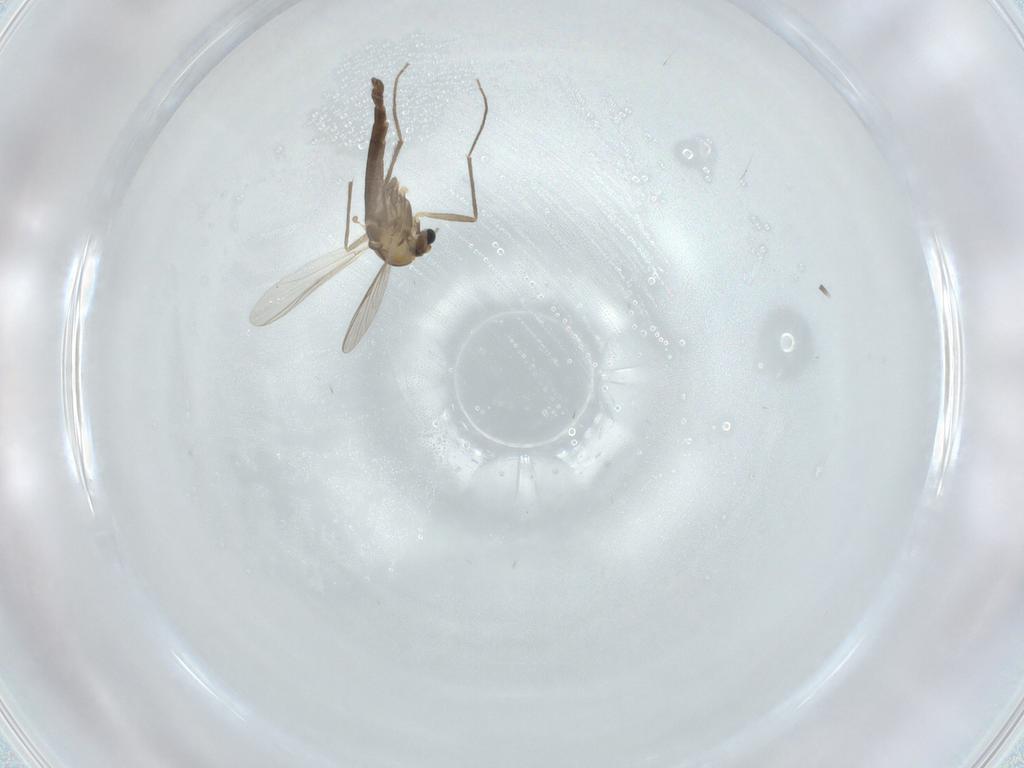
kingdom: Animalia
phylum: Arthropoda
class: Insecta
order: Diptera
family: Chironomidae
